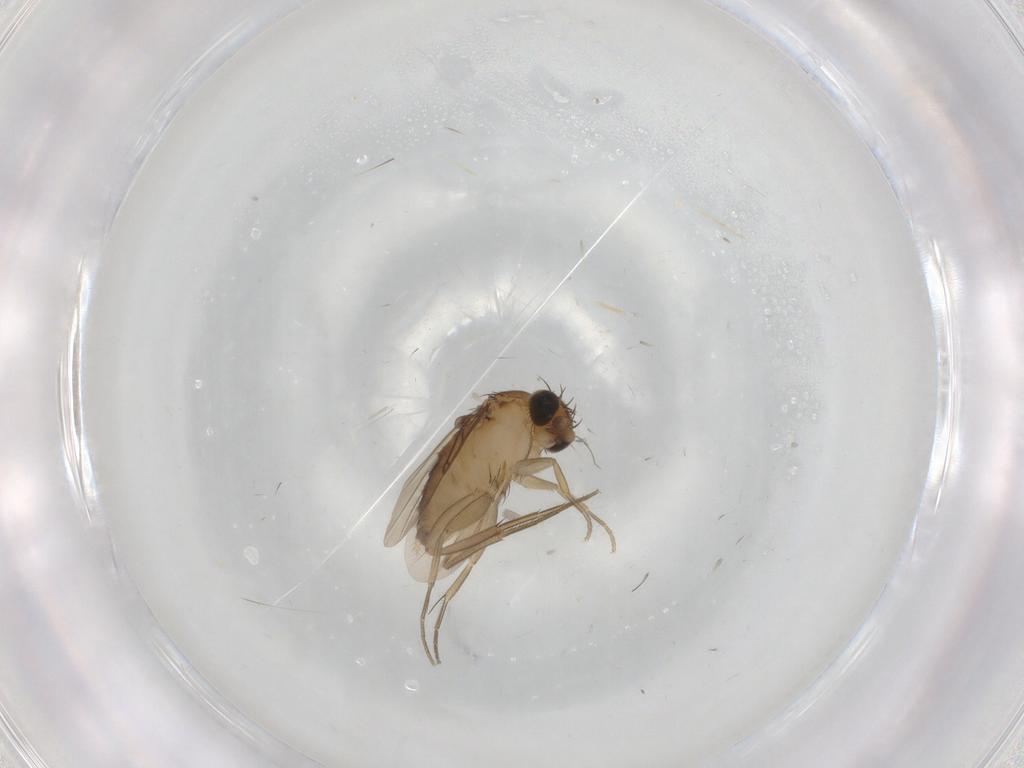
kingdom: Animalia
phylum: Arthropoda
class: Insecta
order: Diptera
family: Phoridae
